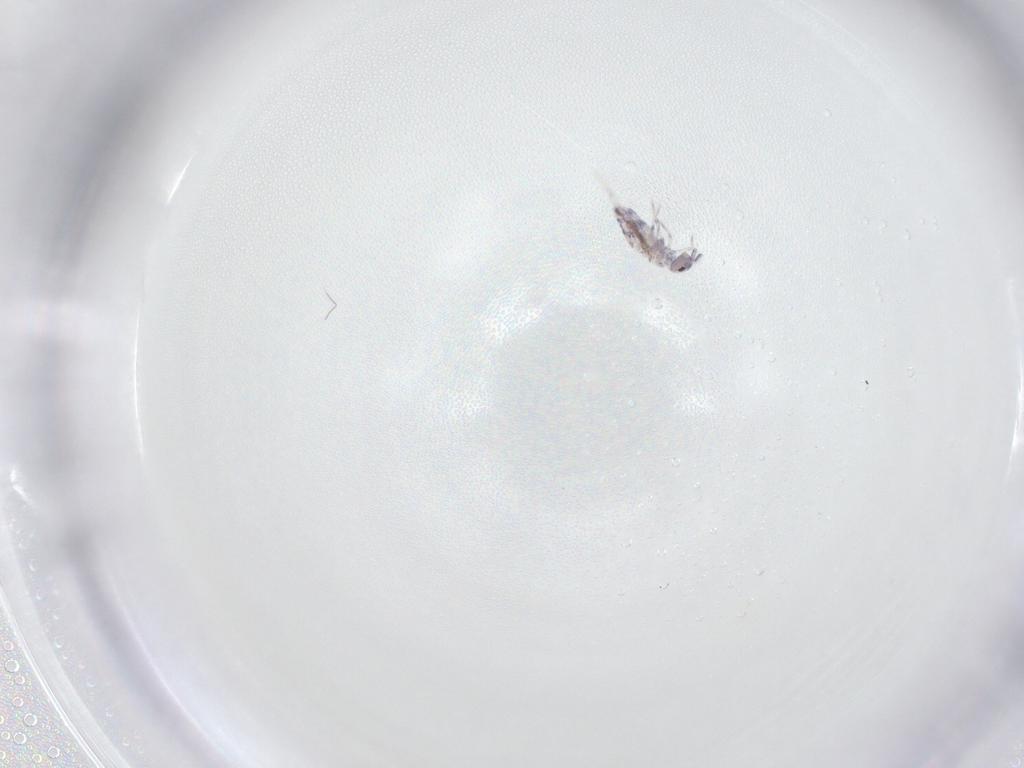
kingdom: Animalia
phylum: Arthropoda
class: Collembola
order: Entomobryomorpha
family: Entomobryidae
